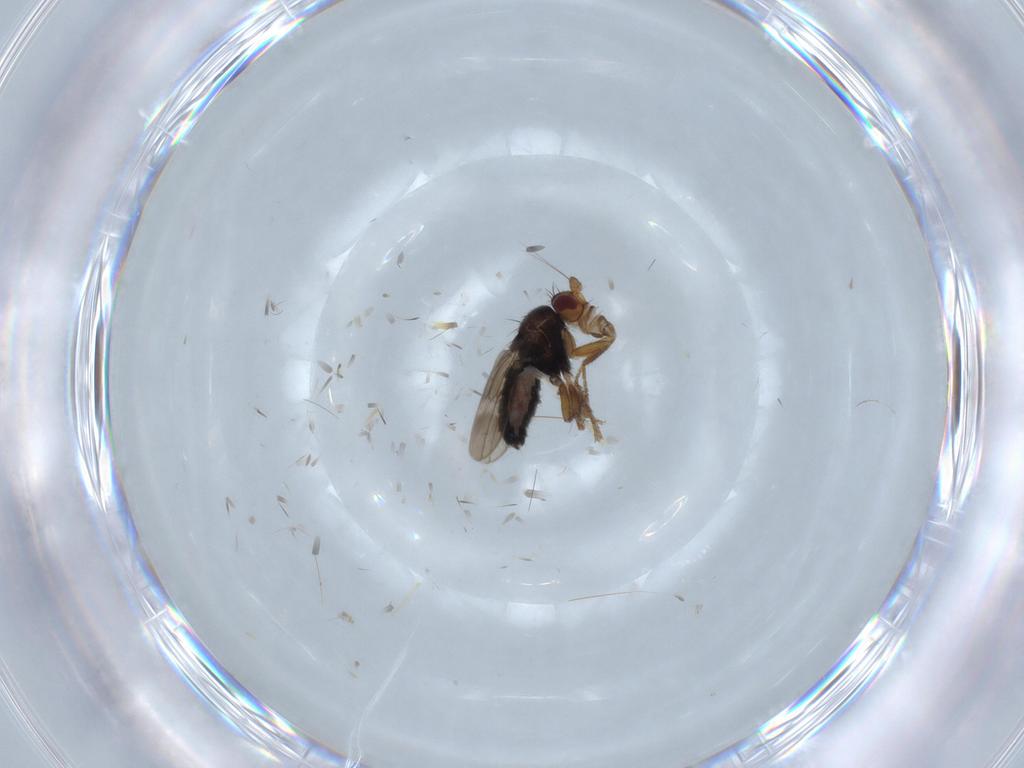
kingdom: Animalia
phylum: Arthropoda
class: Insecta
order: Diptera
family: Sphaeroceridae
